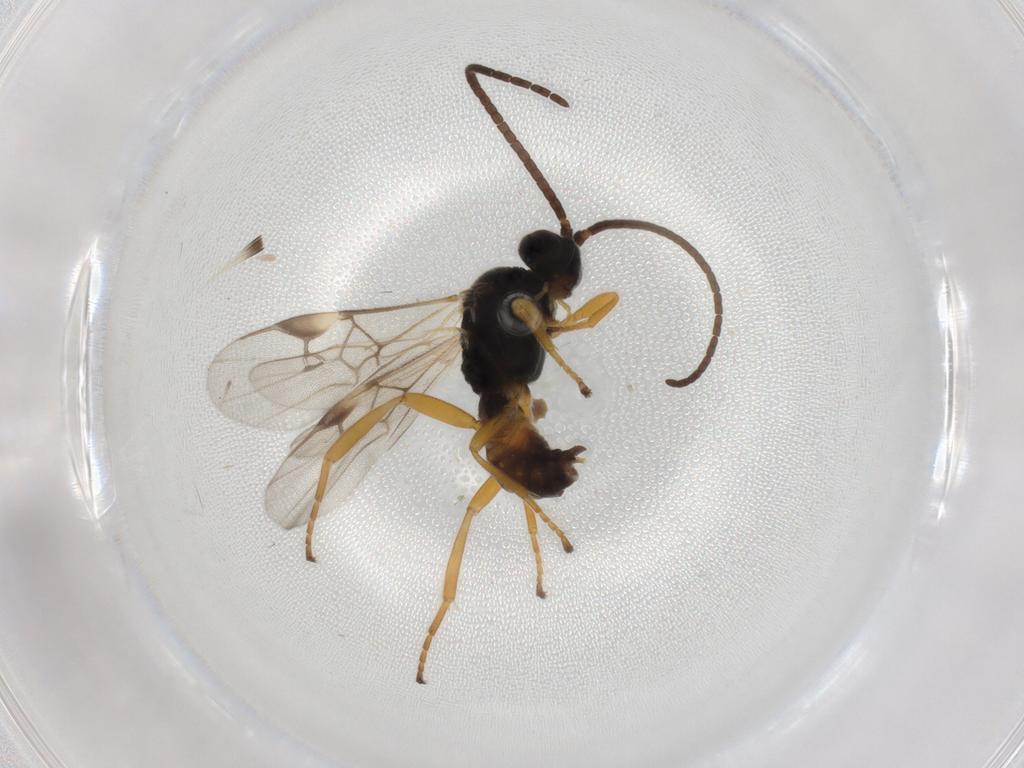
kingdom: Animalia
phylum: Arthropoda
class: Insecta
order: Hymenoptera
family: Braconidae
